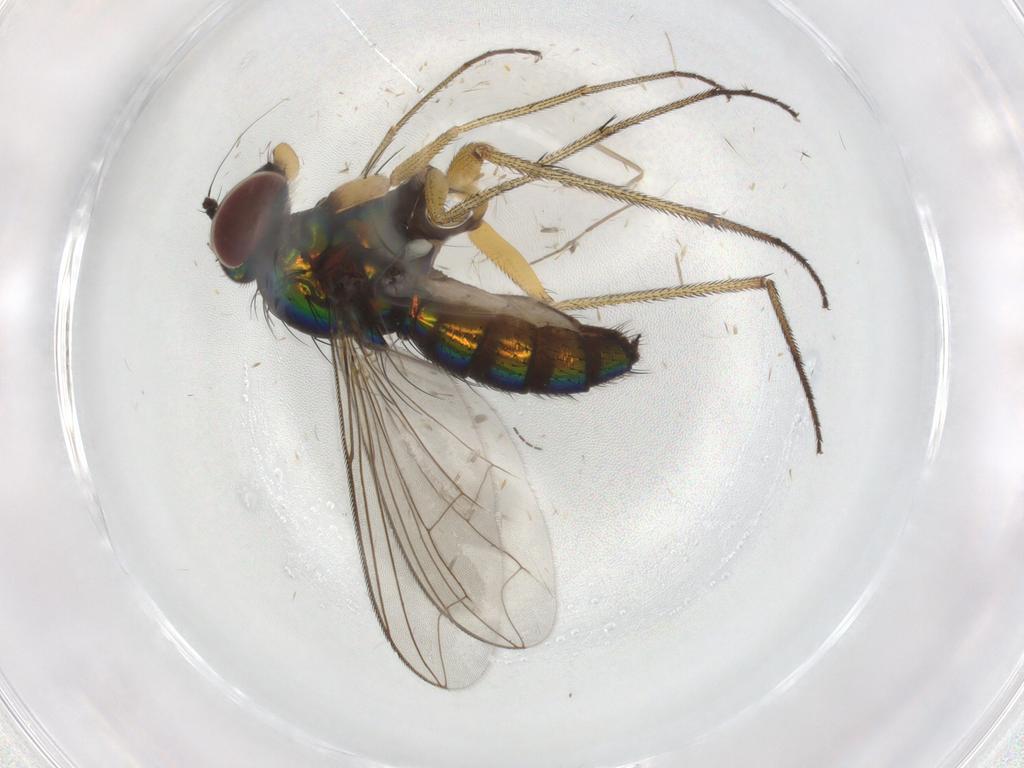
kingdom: Animalia
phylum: Arthropoda
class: Insecta
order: Diptera
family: Dolichopodidae
